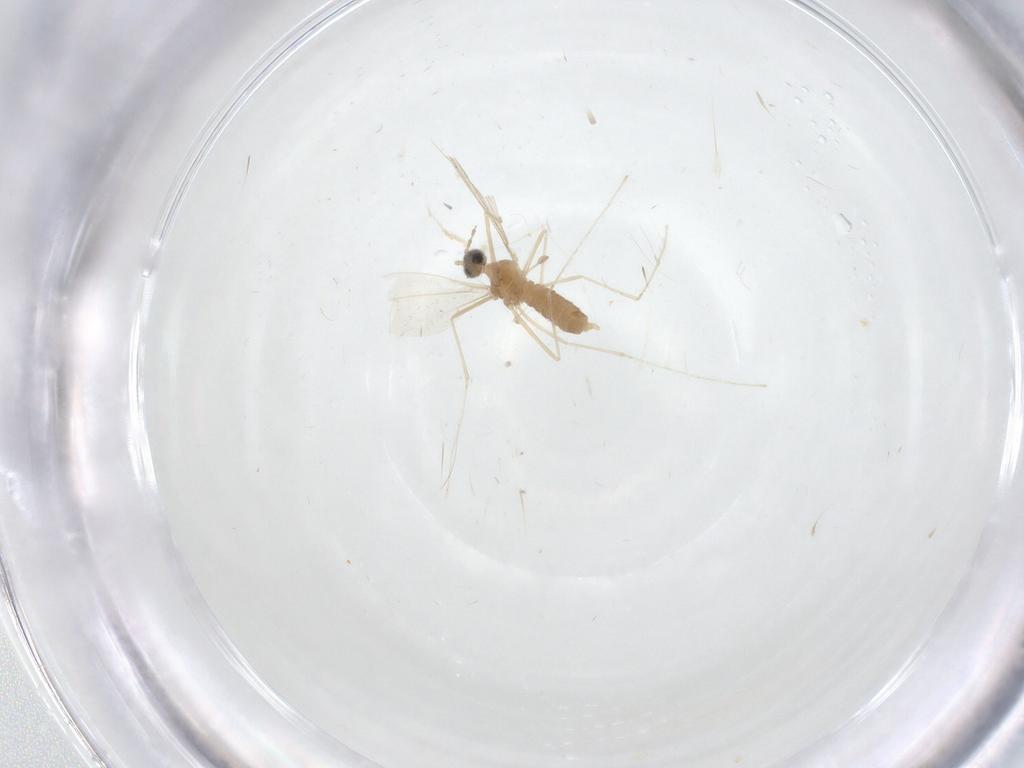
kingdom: Animalia
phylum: Arthropoda
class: Insecta
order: Diptera
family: Cecidomyiidae
